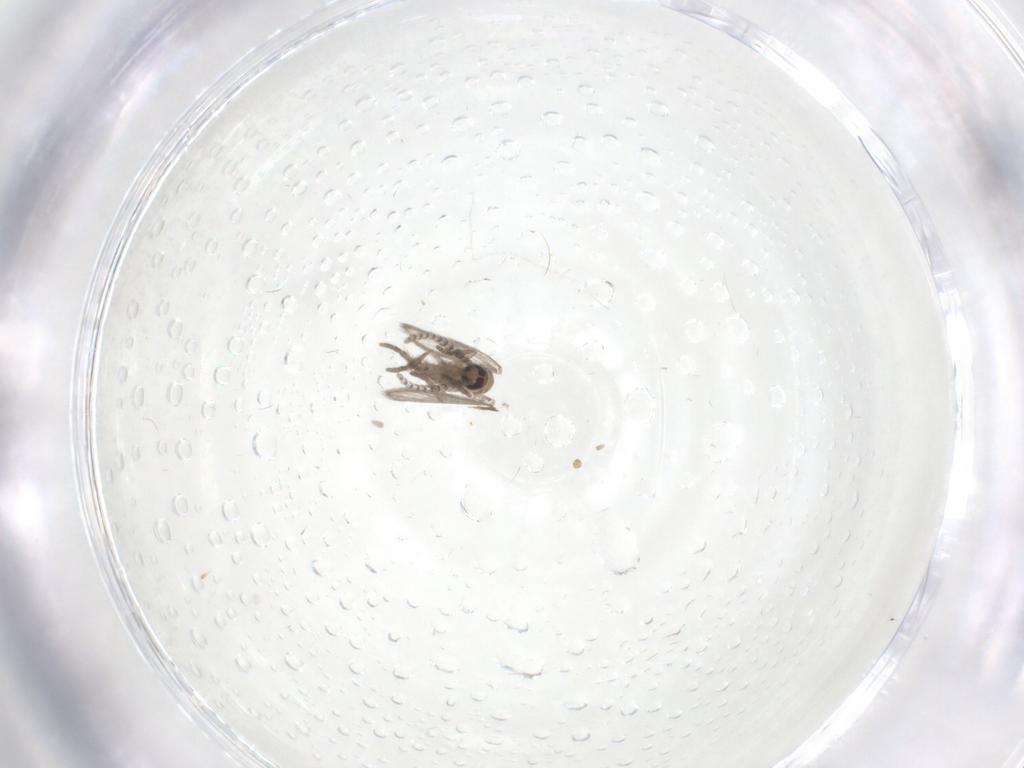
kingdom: Animalia
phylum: Arthropoda
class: Insecta
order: Diptera
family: Psychodidae
